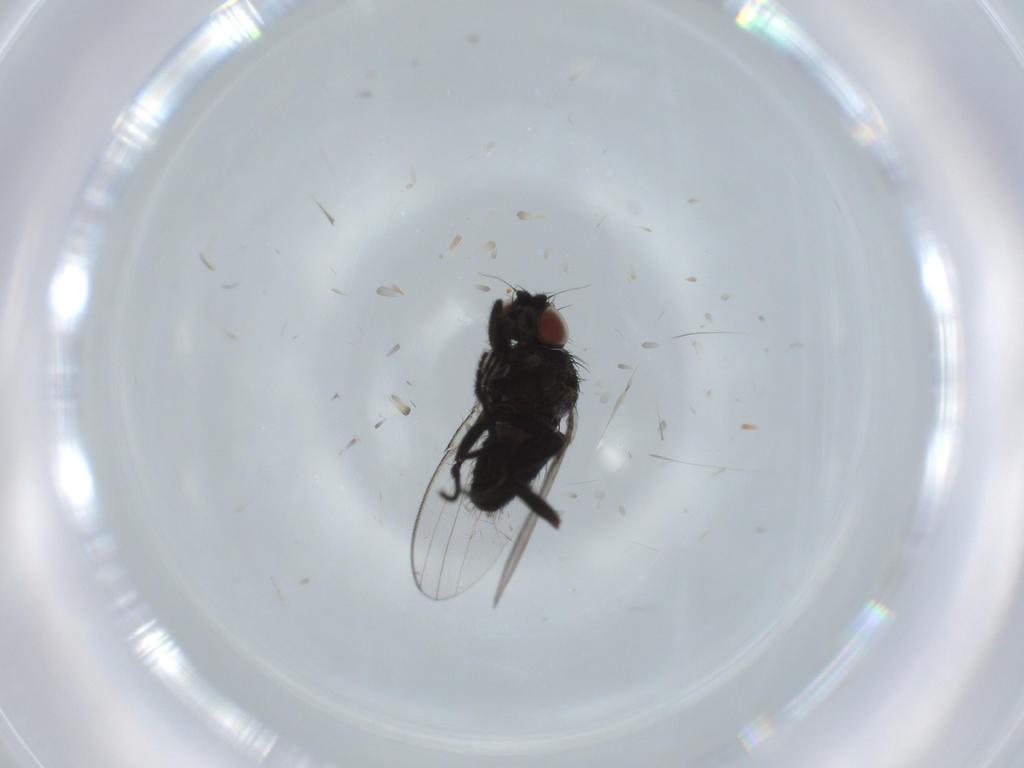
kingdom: Animalia
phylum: Arthropoda
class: Insecta
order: Diptera
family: Milichiidae
